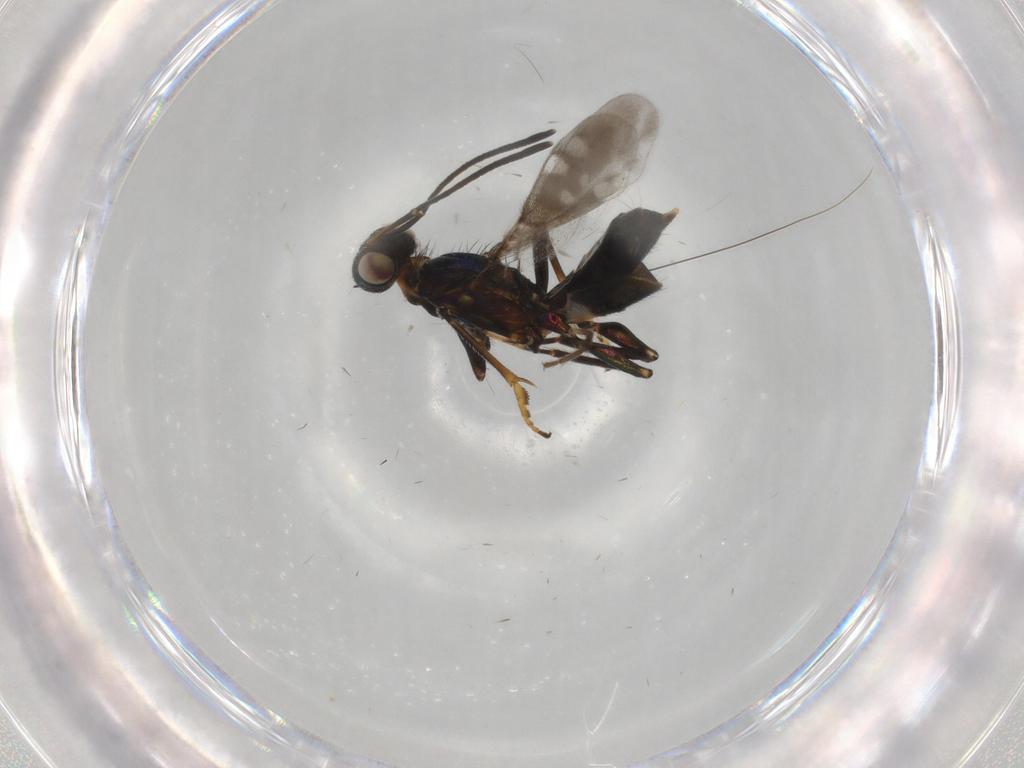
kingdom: Animalia
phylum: Arthropoda
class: Insecta
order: Hymenoptera
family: Eupelmidae
